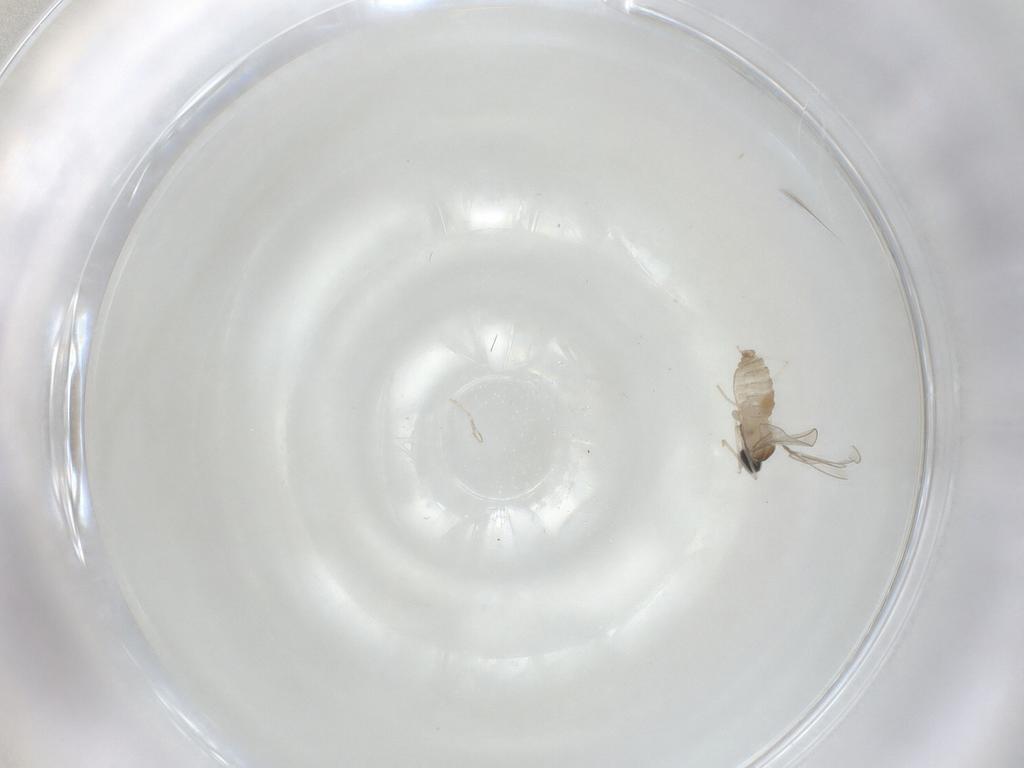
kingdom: Animalia
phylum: Arthropoda
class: Insecta
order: Diptera
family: Cecidomyiidae
